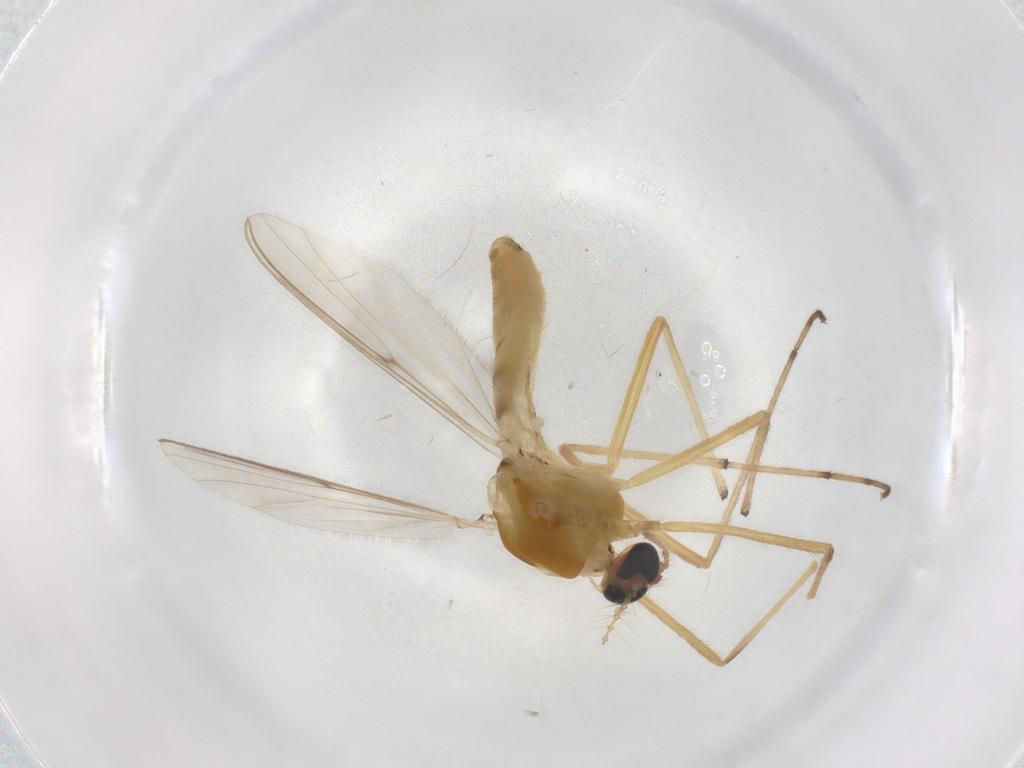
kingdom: Animalia
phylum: Arthropoda
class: Insecta
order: Diptera
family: Chironomidae
